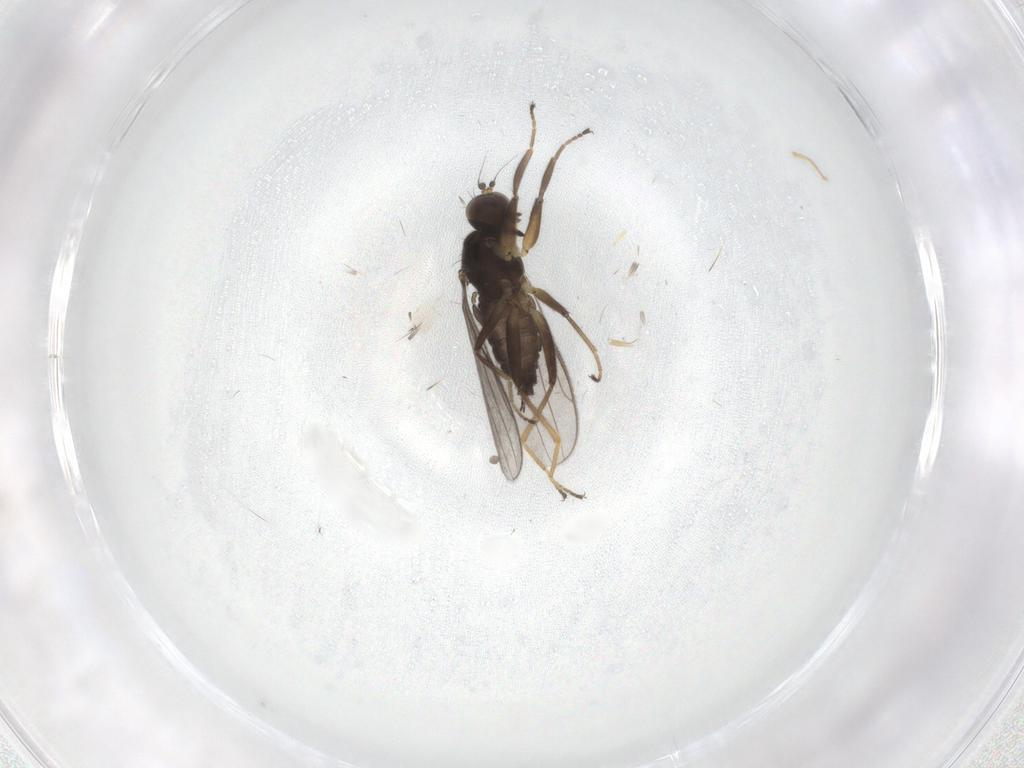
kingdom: Animalia
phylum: Arthropoda
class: Insecta
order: Diptera
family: Hybotidae
